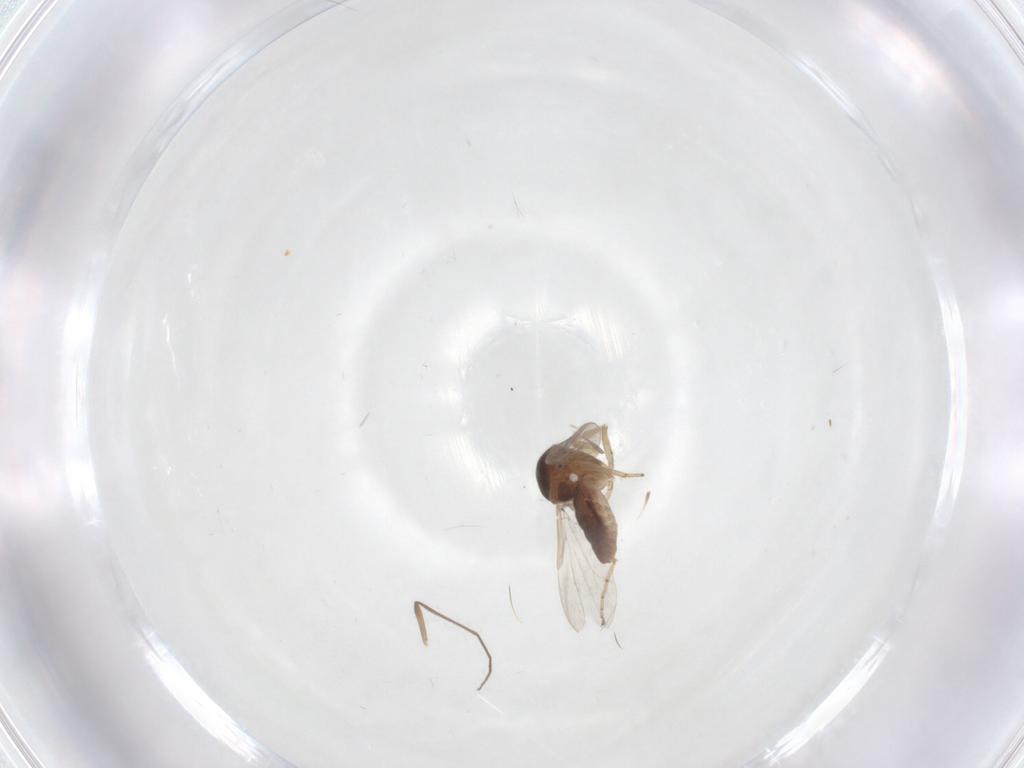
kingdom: Animalia
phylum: Arthropoda
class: Insecta
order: Diptera
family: Ceratopogonidae
